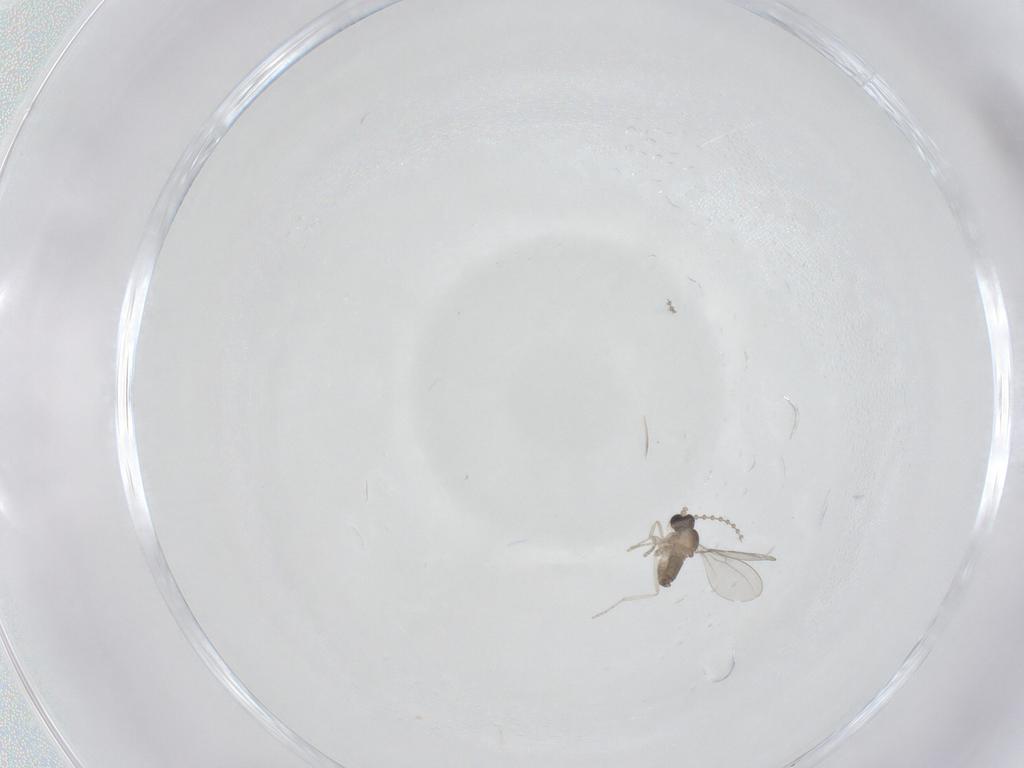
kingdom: Animalia
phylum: Arthropoda
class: Insecta
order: Diptera
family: Cecidomyiidae
